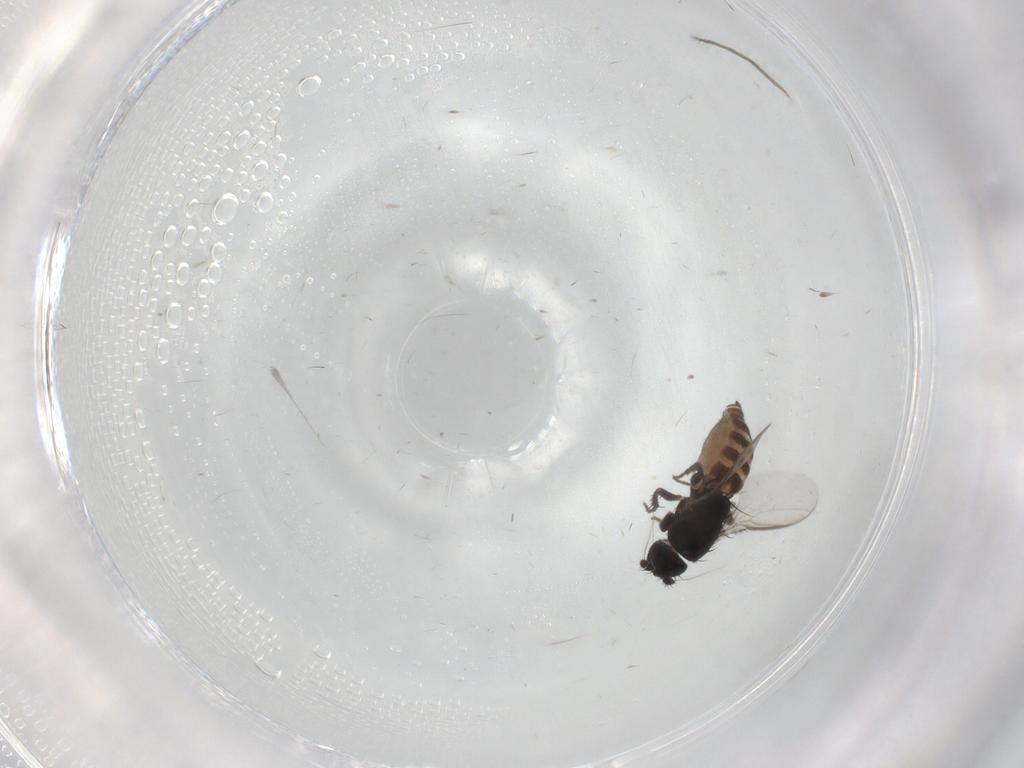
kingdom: Animalia
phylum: Arthropoda
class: Insecta
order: Diptera
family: Sphaeroceridae
